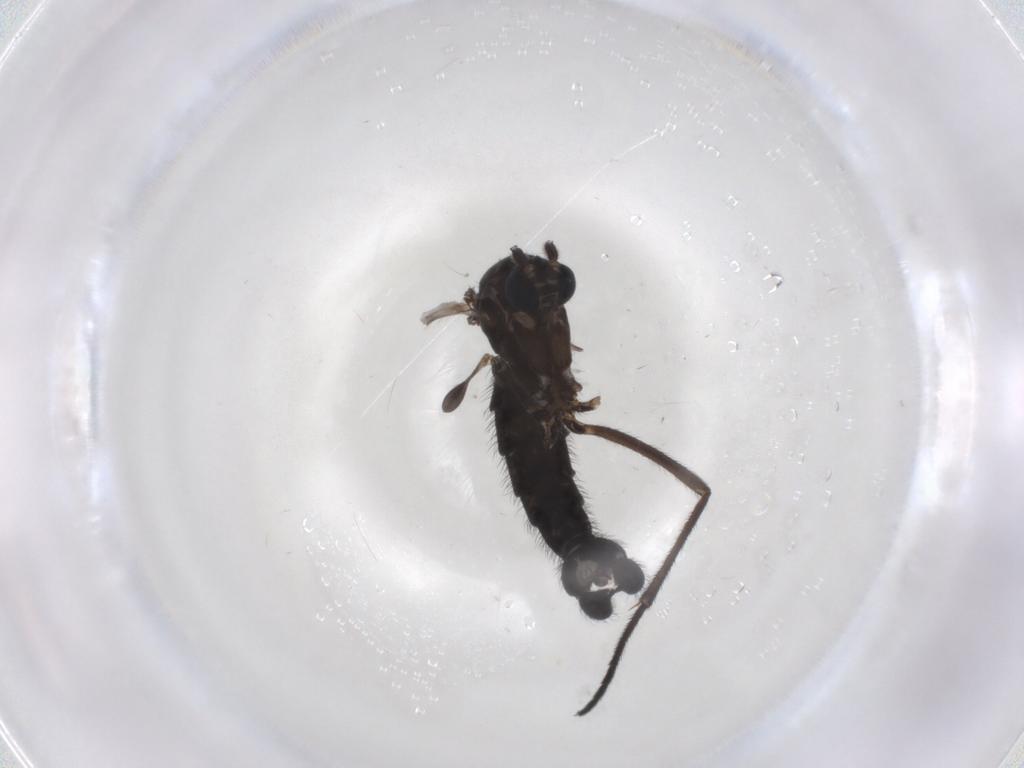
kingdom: Animalia
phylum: Arthropoda
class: Insecta
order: Diptera
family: Sciaridae
